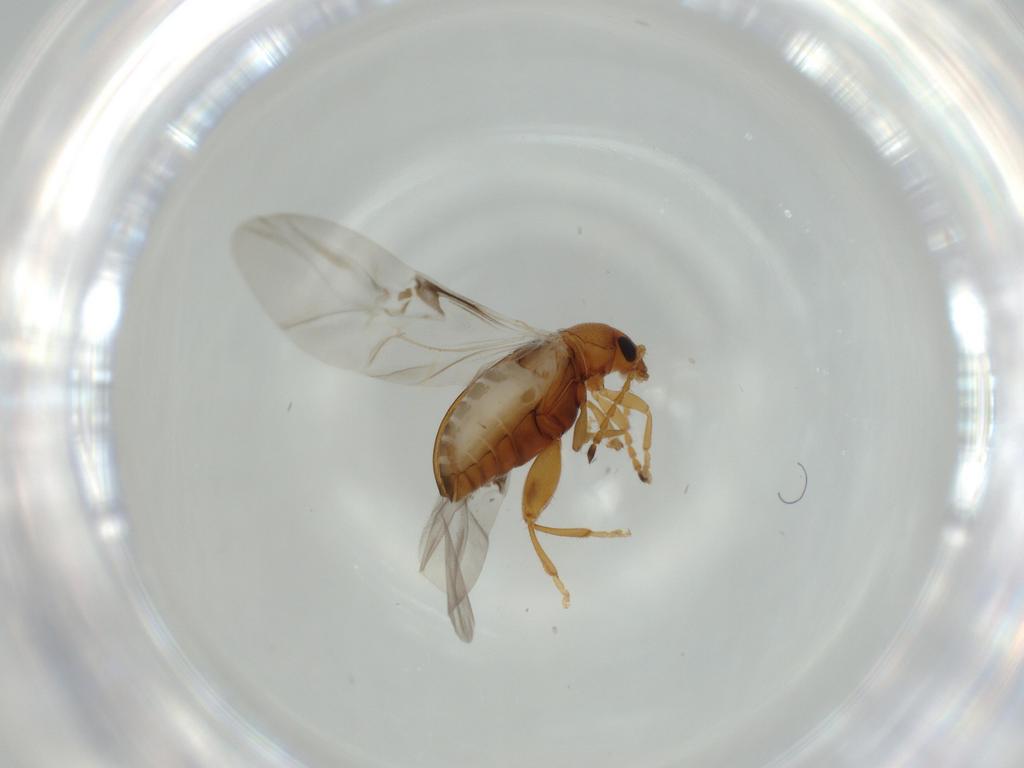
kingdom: Animalia
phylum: Arthropoda
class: Insecta
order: Coleoptera
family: Chrysomelidae
